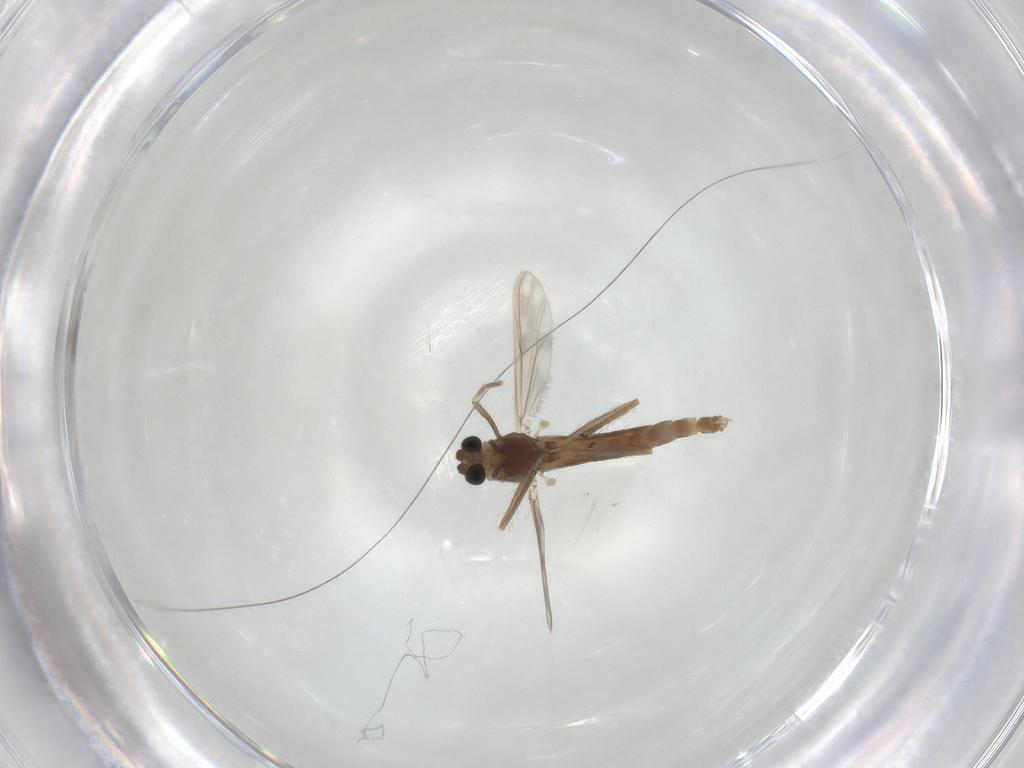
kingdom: Animalia
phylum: Arthropoda
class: Insecta
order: Diptera
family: Chironomidae
